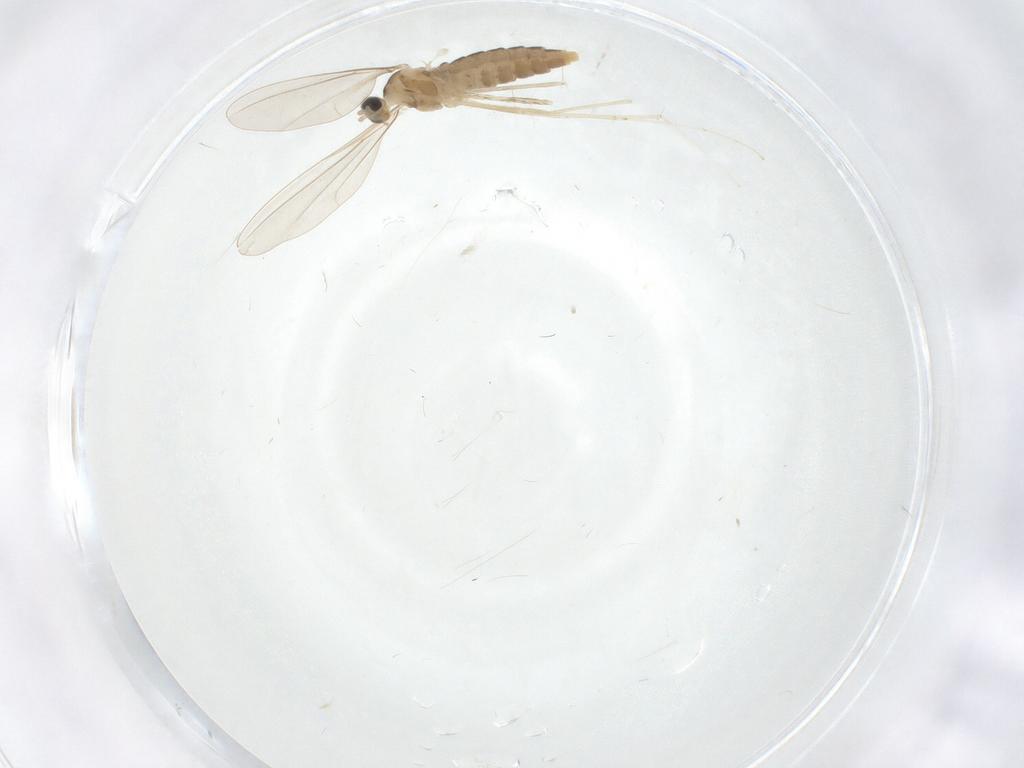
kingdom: Animalia
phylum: Arthropoda
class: Insecta
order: Diptera
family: Cecidomyiidae
